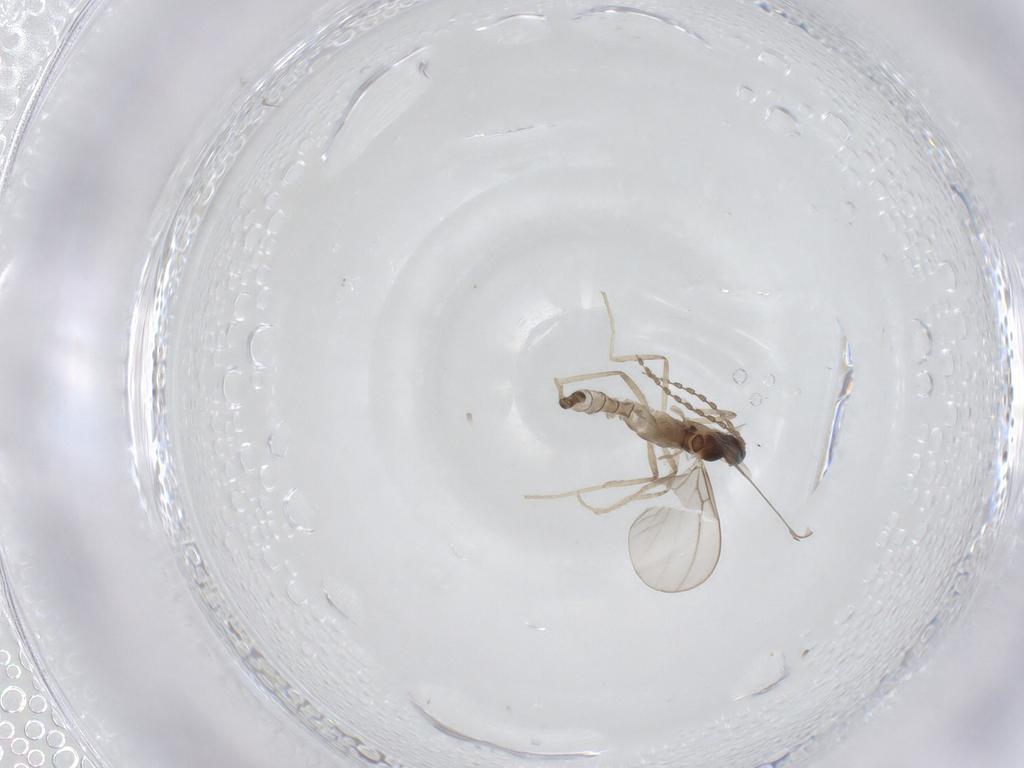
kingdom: Animalia
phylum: Arthropoda
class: Insecta
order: Diptera
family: Cecidomyiidae
